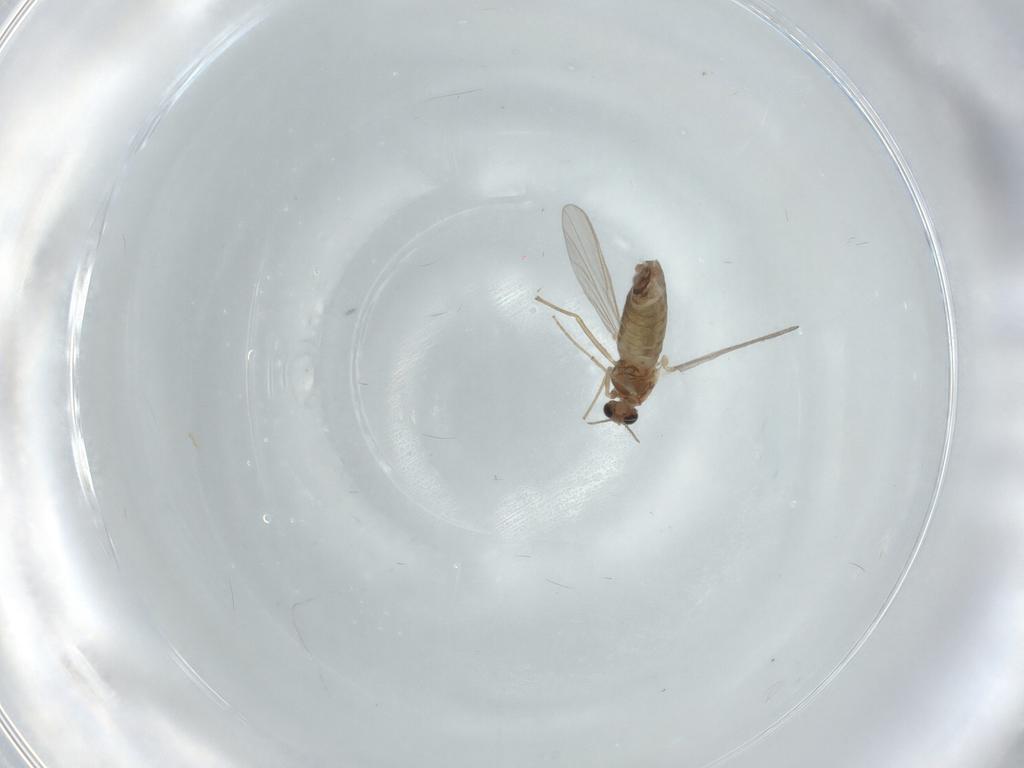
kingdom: Animalia
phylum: Arthropoda
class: Insecta
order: Diptera
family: Chironomidae
